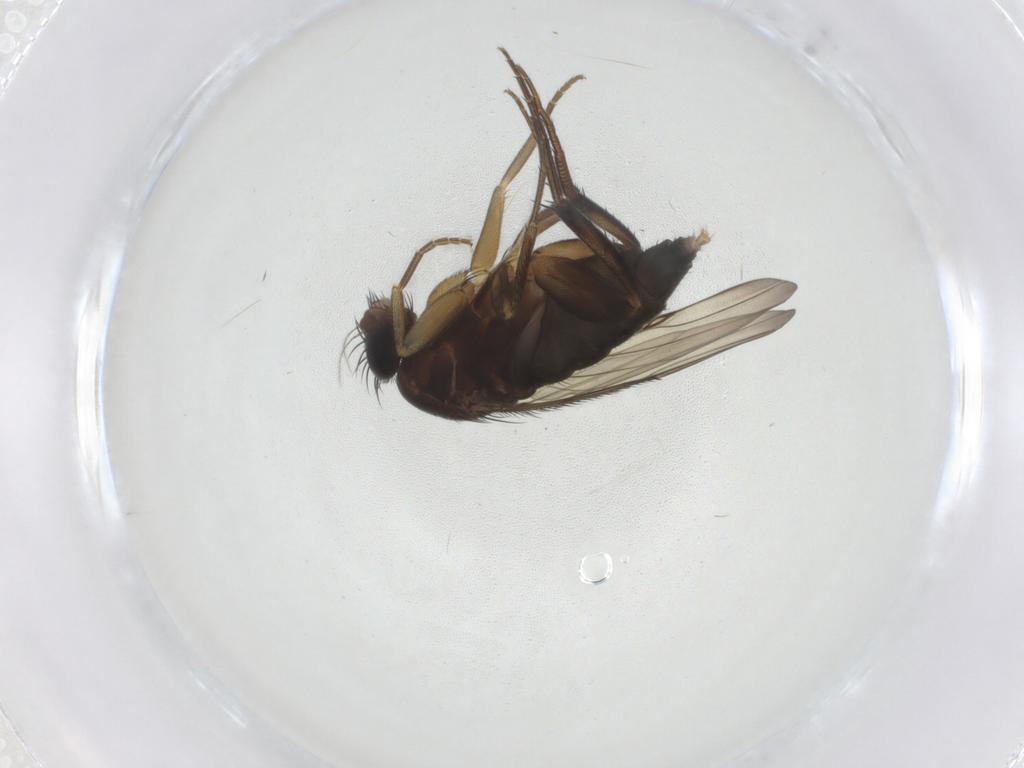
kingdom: Animalia
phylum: Arthropoda
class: Insecta
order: Diptera
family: Phoridae
